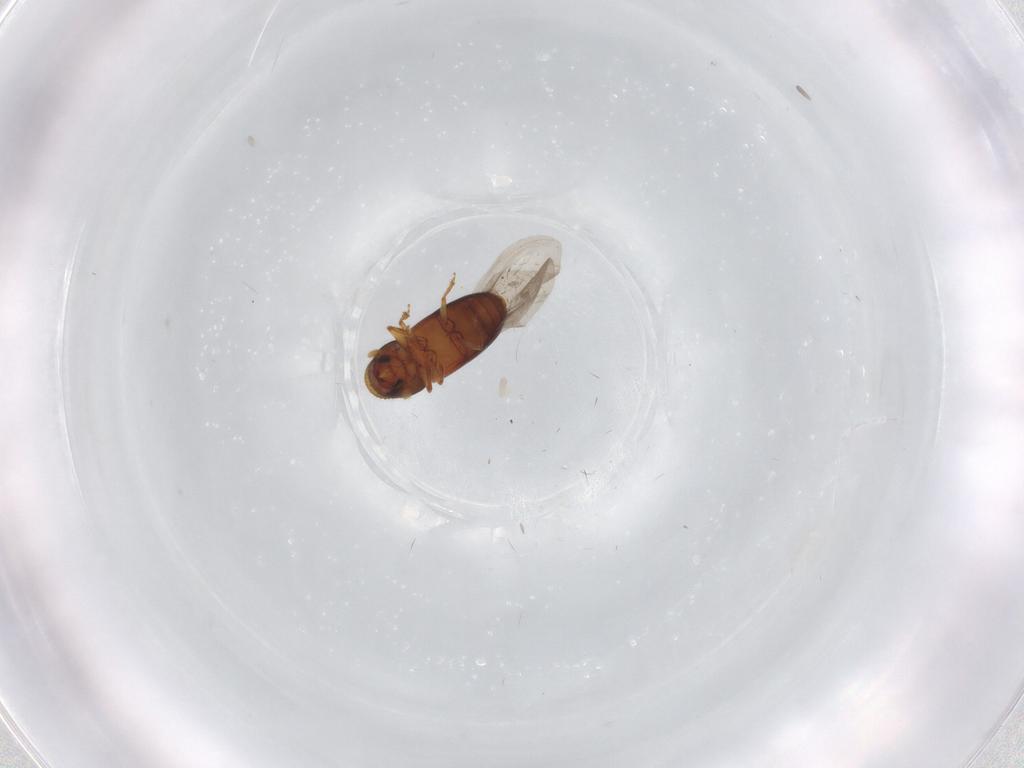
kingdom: Animalia
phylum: Arthropoda
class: Insecta
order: Coleoptera
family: Curculionidae
